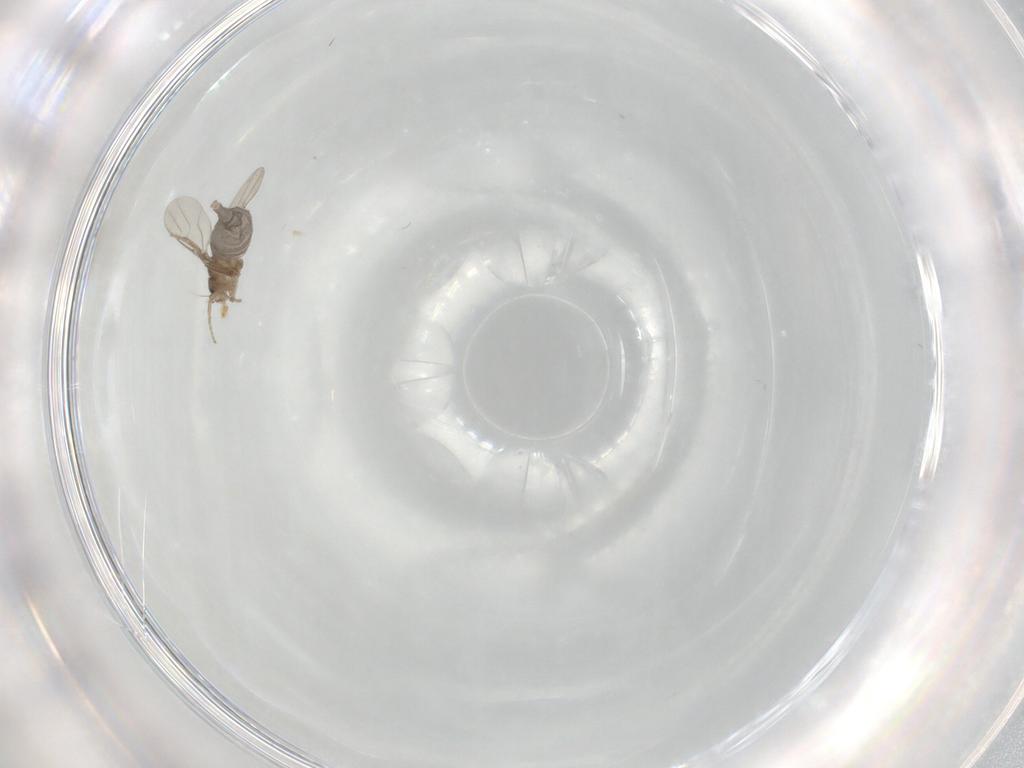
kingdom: Animalia
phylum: Arthropoda
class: Insecta
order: Diptera
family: Phoridae
